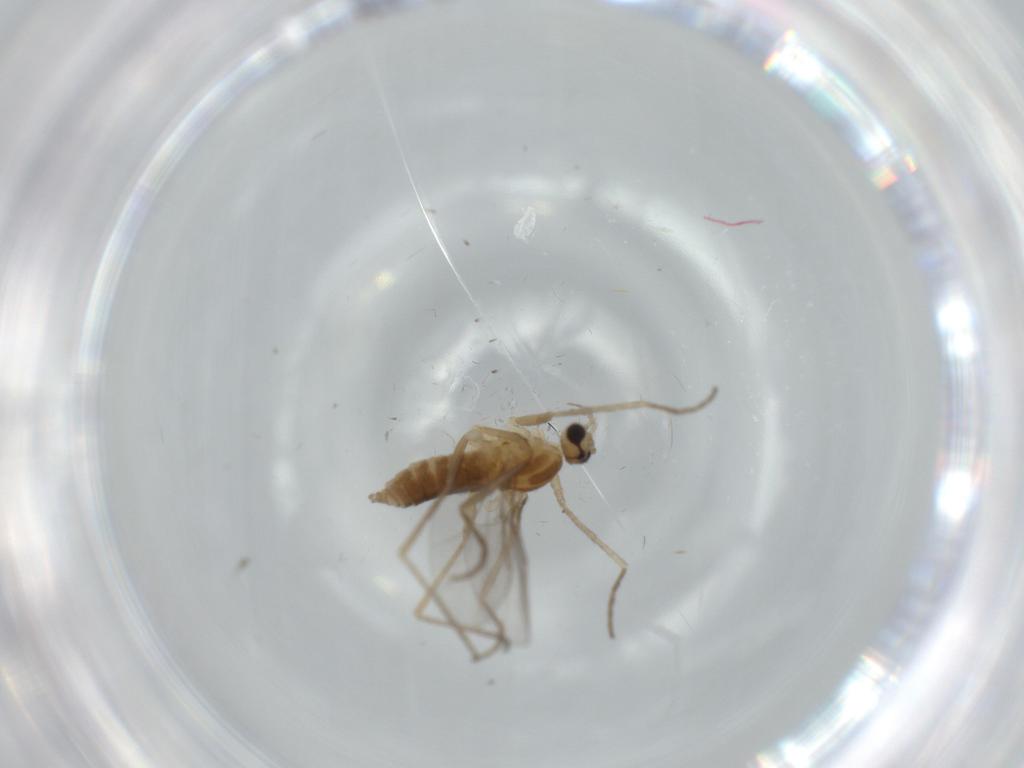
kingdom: Animalia
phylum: Arthropoda
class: Insecta
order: Diptera
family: Cecidomyiidae
